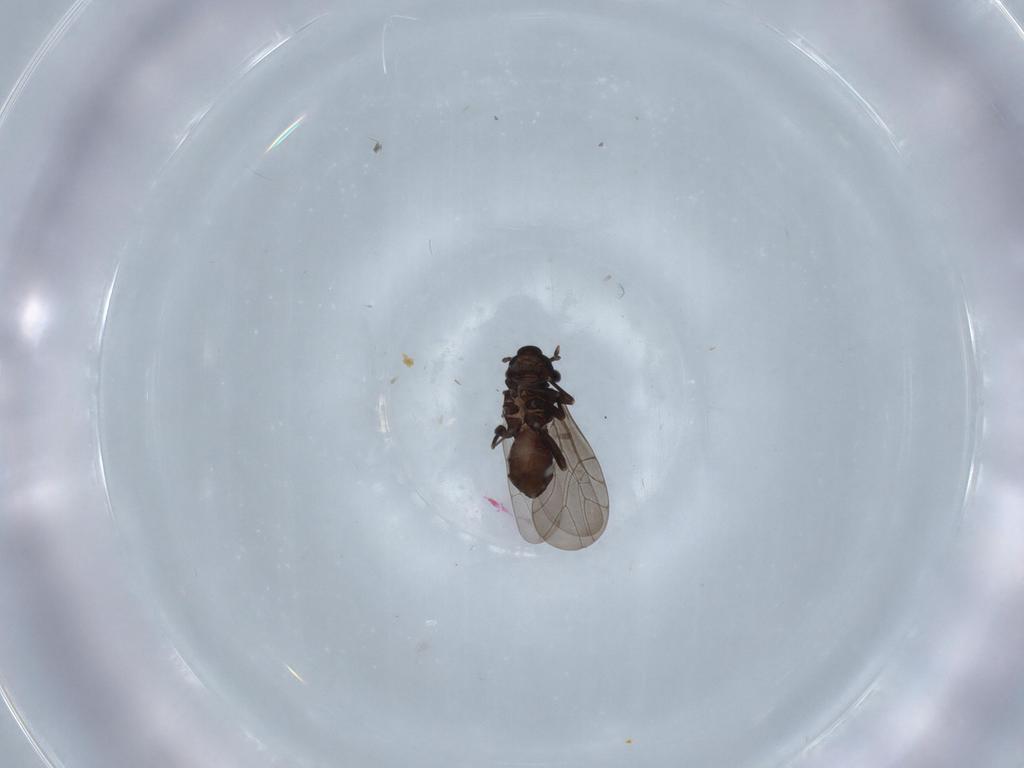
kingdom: Animalia
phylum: Arthropoda
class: Insecta
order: Psocodea
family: Lepidopsocidae
